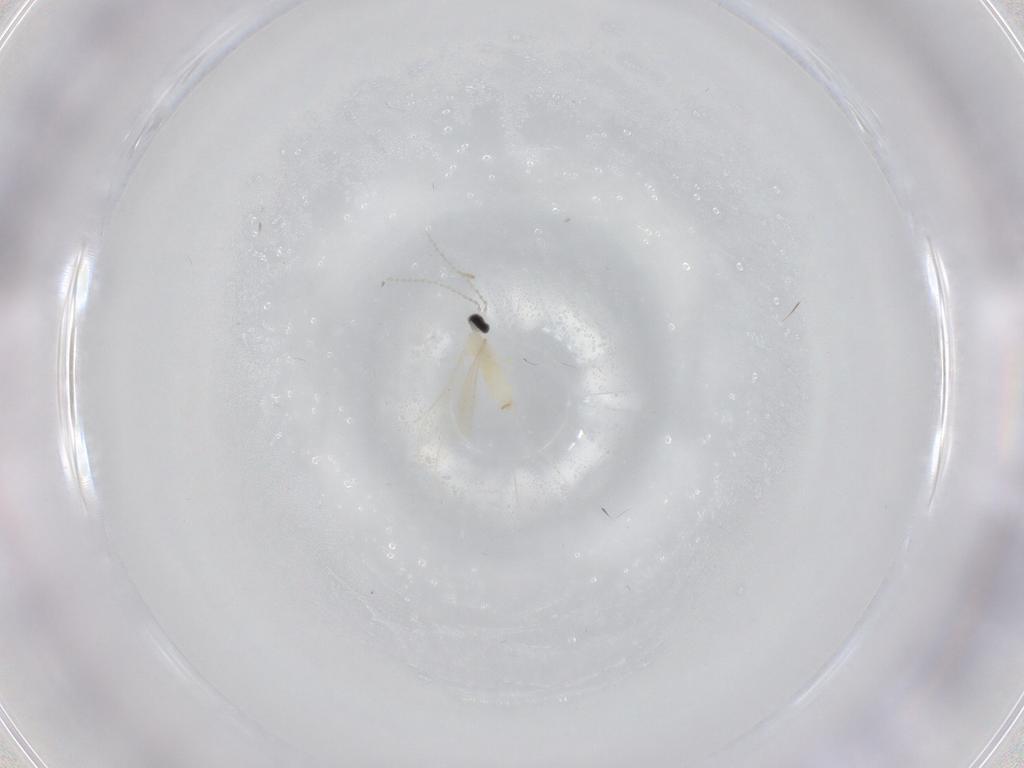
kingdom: Animalia
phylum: Arthropoda
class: Insecta
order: Diptera
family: Cecidomyiidae
